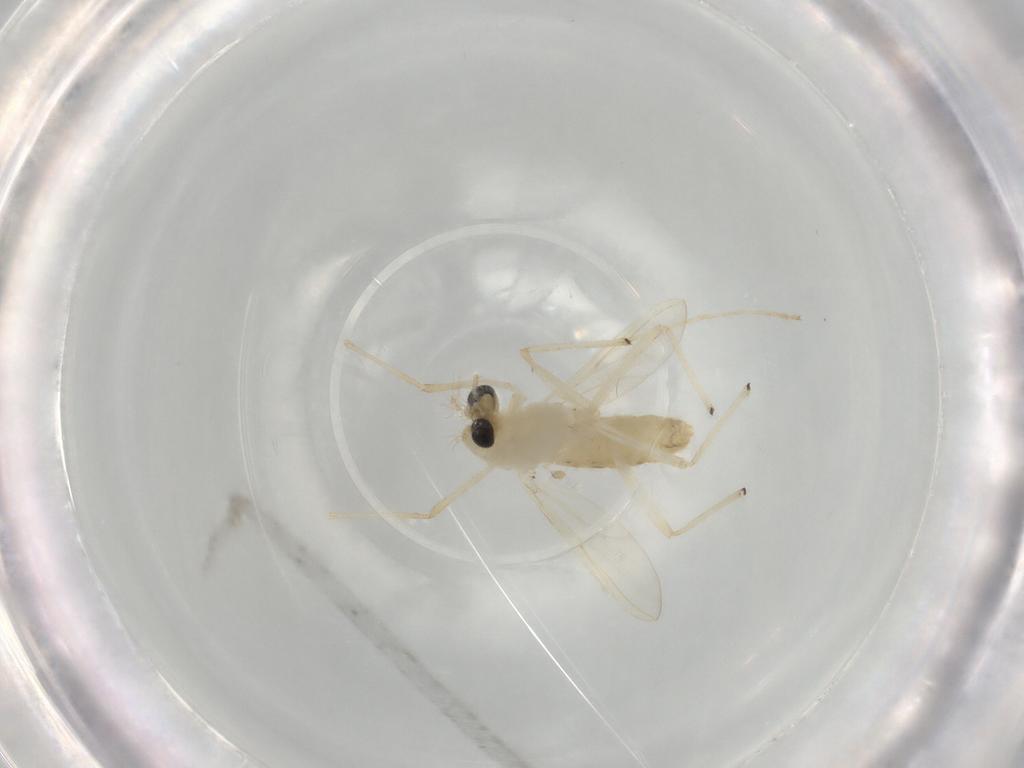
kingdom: Animalia
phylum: Arthropoda
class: Insecta
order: Diptera
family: Chironomidae
